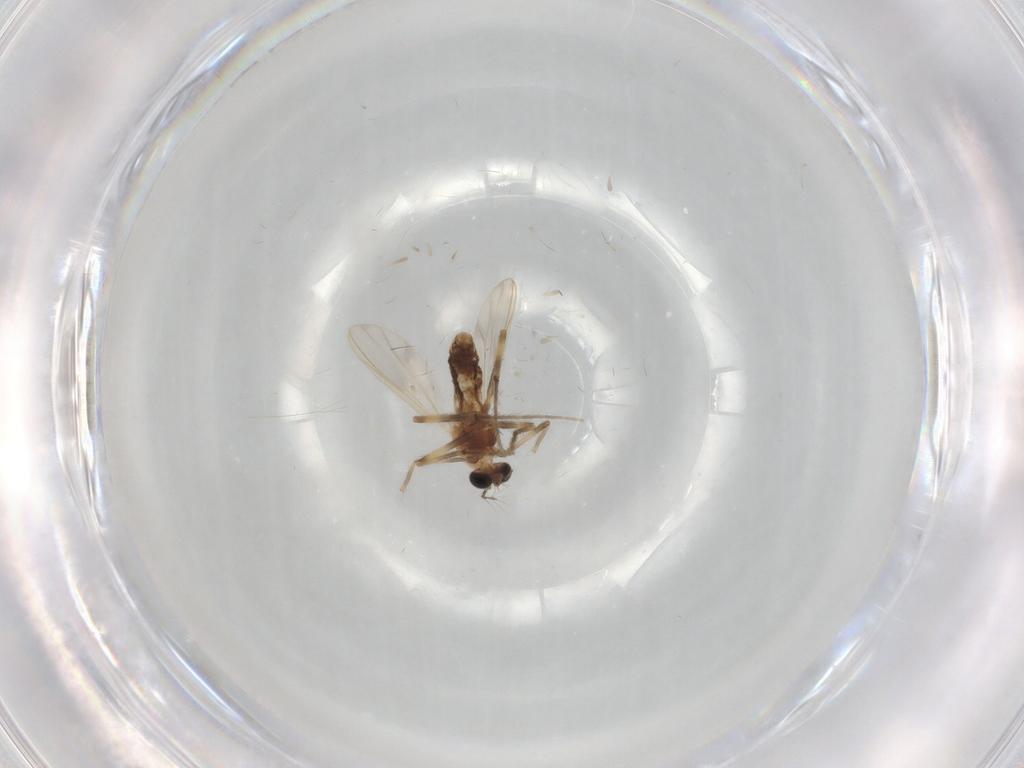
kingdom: Animalia
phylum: Arthropoda
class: Insecta
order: Diptera
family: Chironomidae
